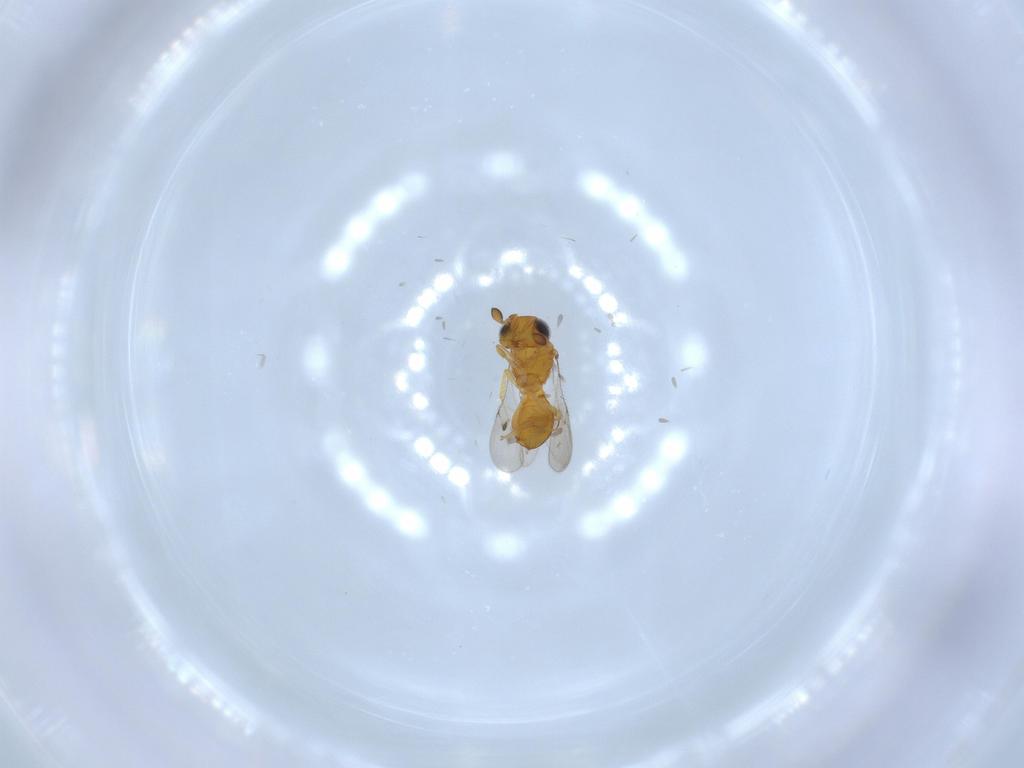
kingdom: Animalia
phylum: Arthropoda
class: Insecta
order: Hymenoptera
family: Scelionidae
